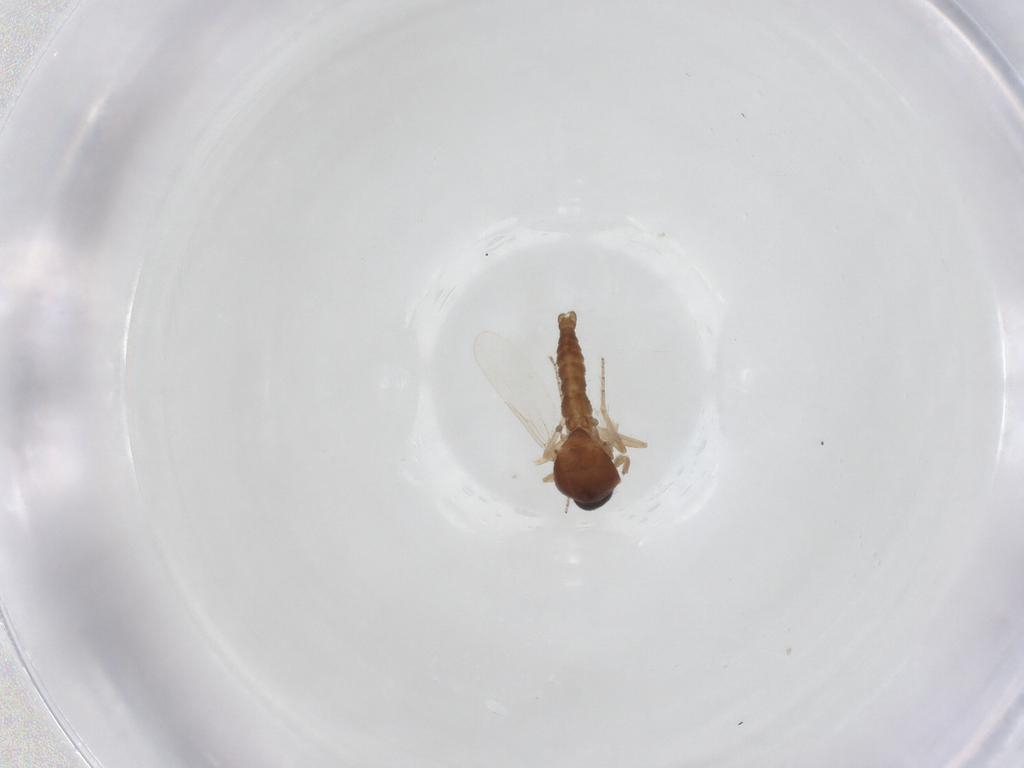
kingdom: Animalia
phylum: Arthropoda
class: Insecta
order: Diptera
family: Ceratopogonidae
